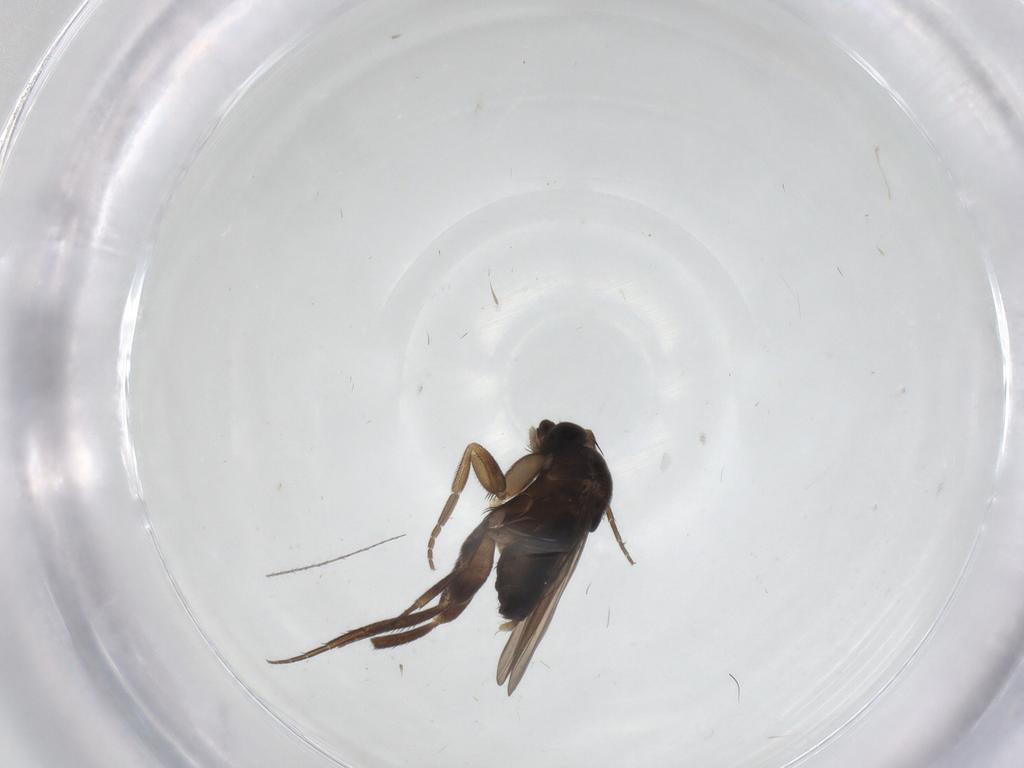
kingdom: Animalia
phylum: Arthropoda
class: Insecta
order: Diptera
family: Phoridae
